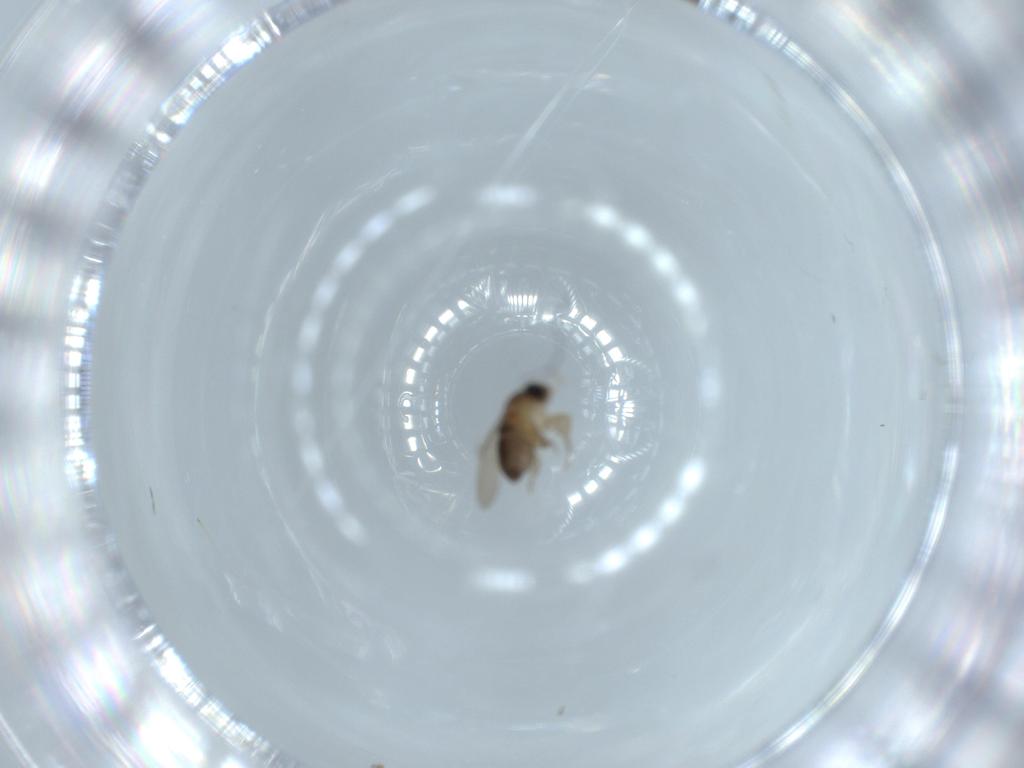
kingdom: Animalia
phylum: Arthropoda
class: Insecta
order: Diptera
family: Phoridae
